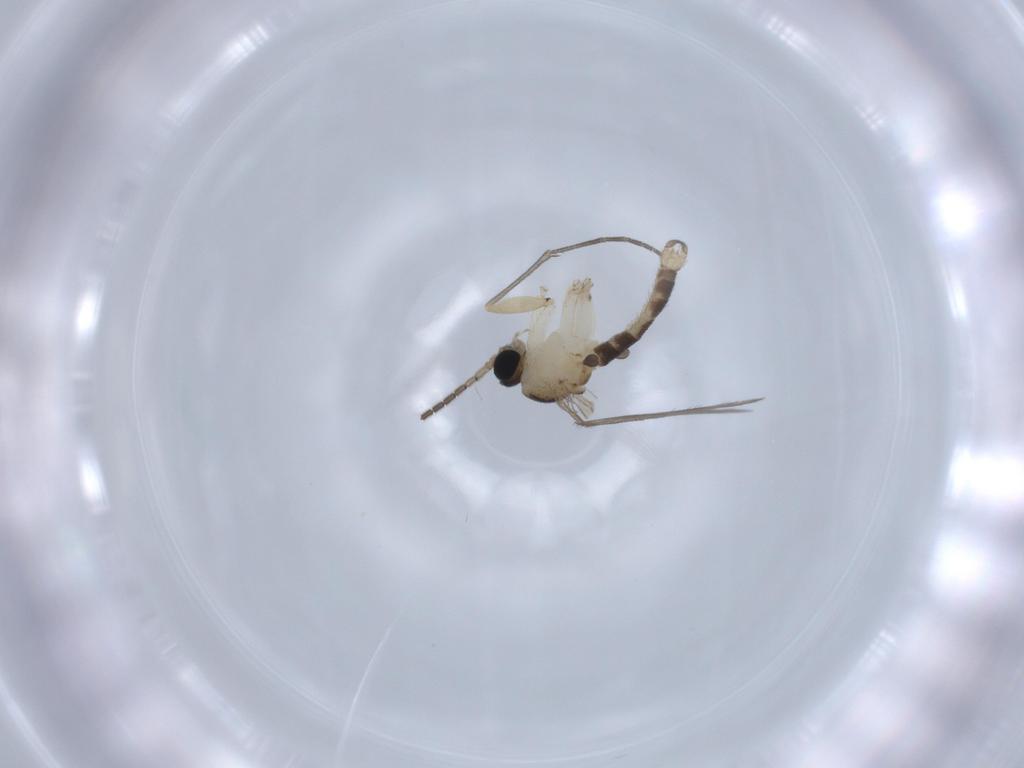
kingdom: Animalia
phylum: Arthropoda
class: Insecta
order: Diptera
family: Sciaridae
